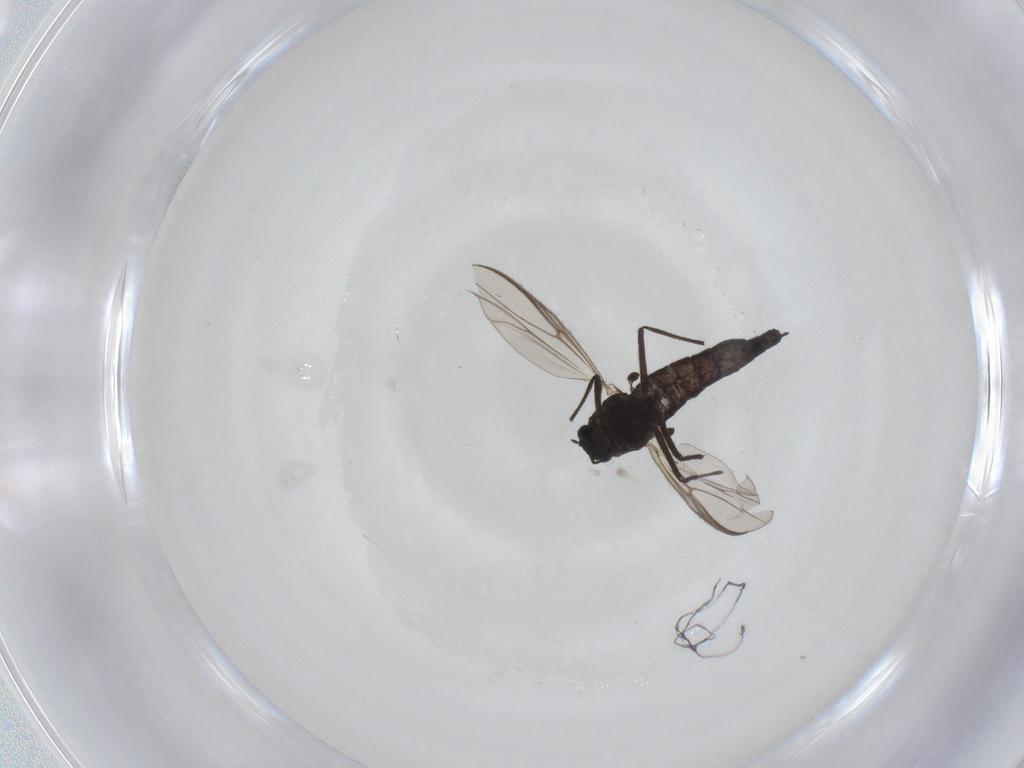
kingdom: Animalia
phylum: Arthropoda
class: Insecta
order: Diptera
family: Chironomidae
